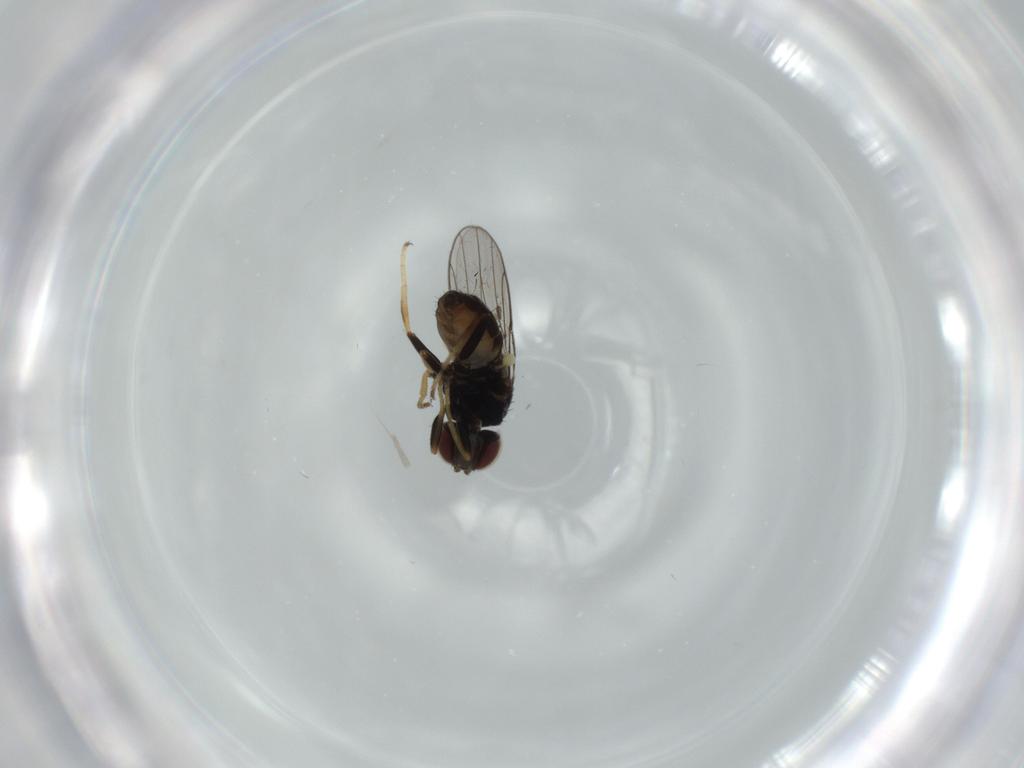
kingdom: Animalia
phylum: Arthropoda
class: Insecta
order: Diptera
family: Chloropidae
